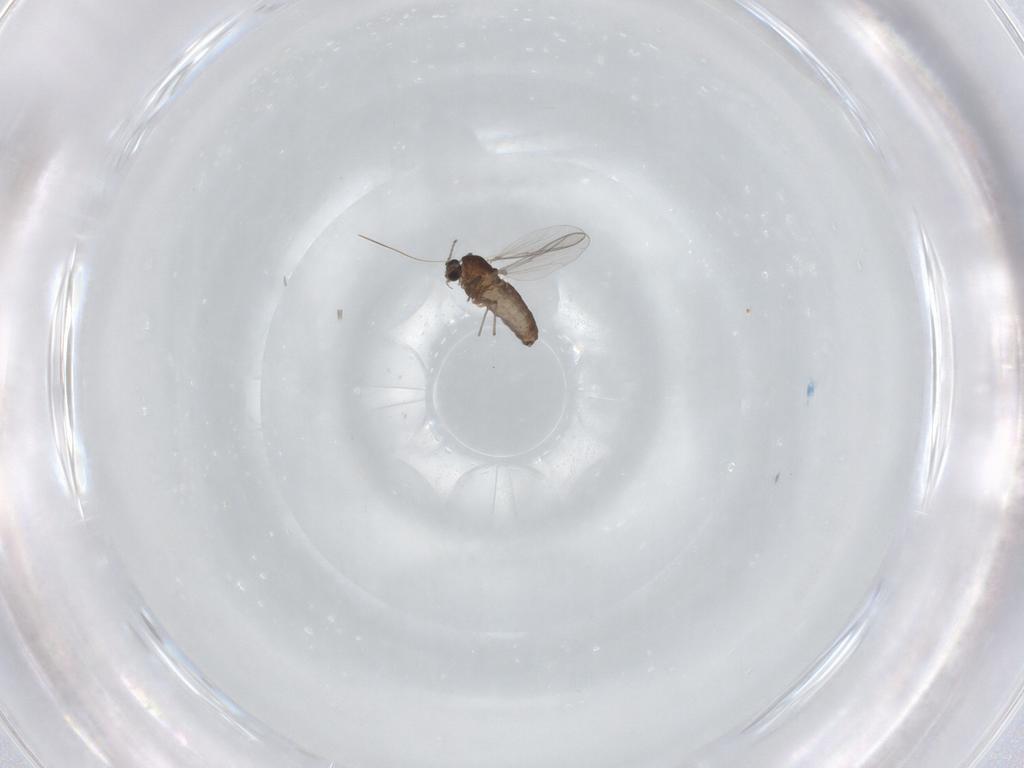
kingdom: Animalia
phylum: Arthropoda
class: Insecta
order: Diptera
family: Chironomidae
